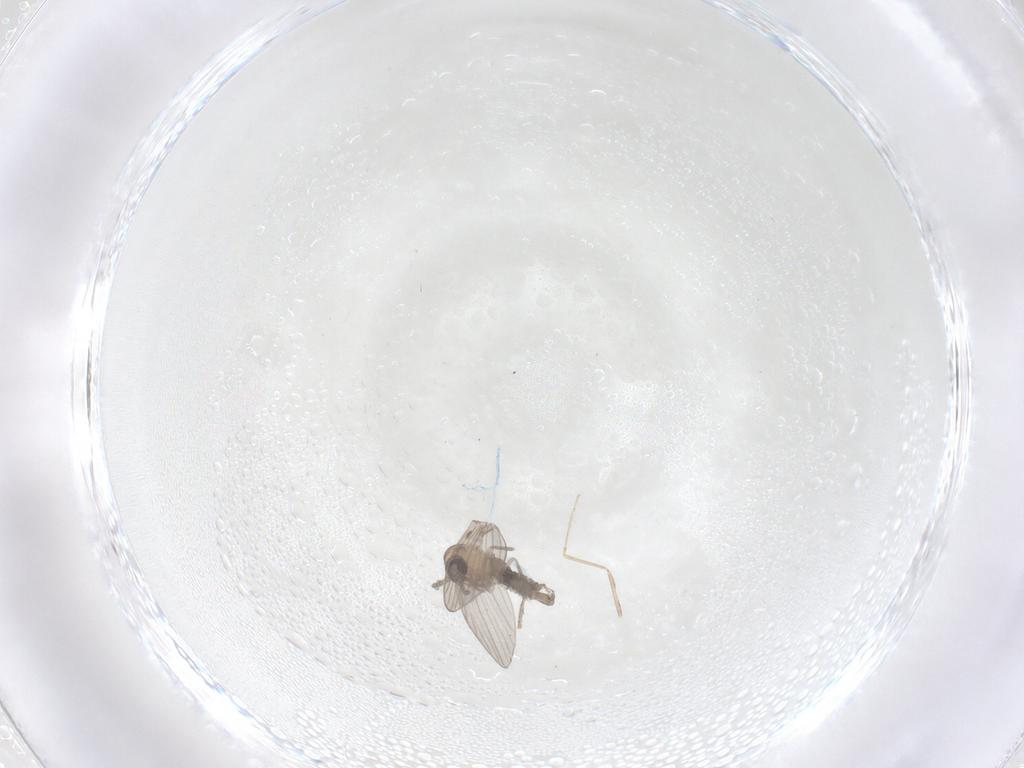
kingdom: Animalia
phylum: Arthropoda
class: Insecta
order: Diptera
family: Psychodidae
